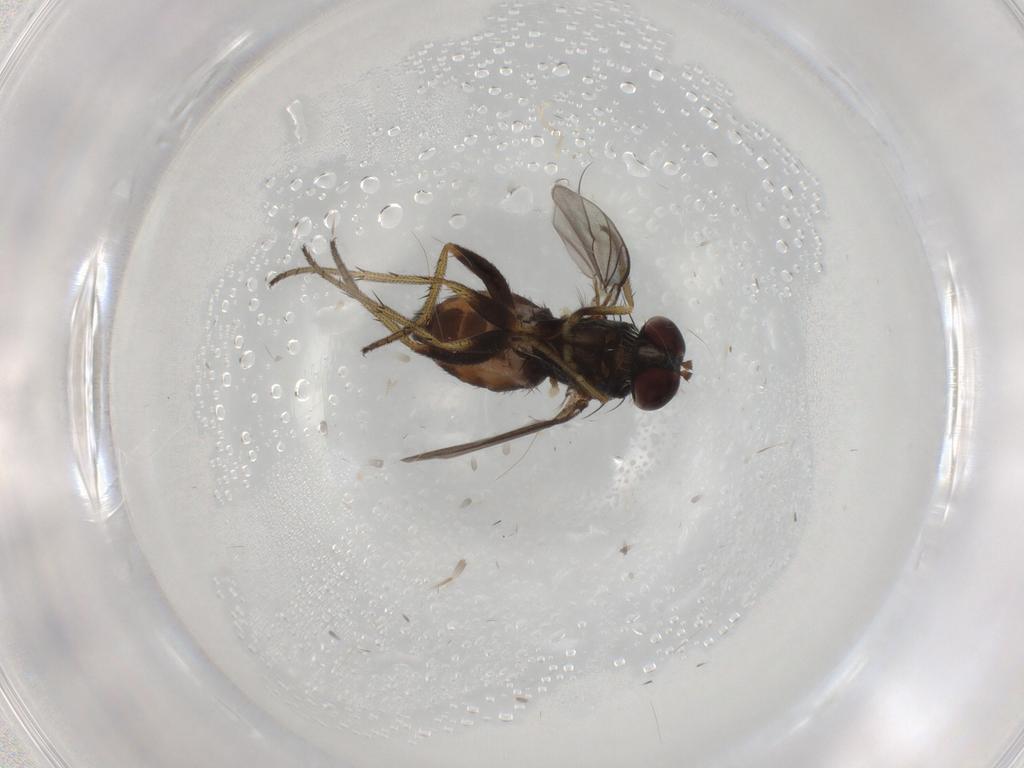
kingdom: Animalia
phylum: Arthropoda
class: Insecta
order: Diptera
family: Dolichopodidae
